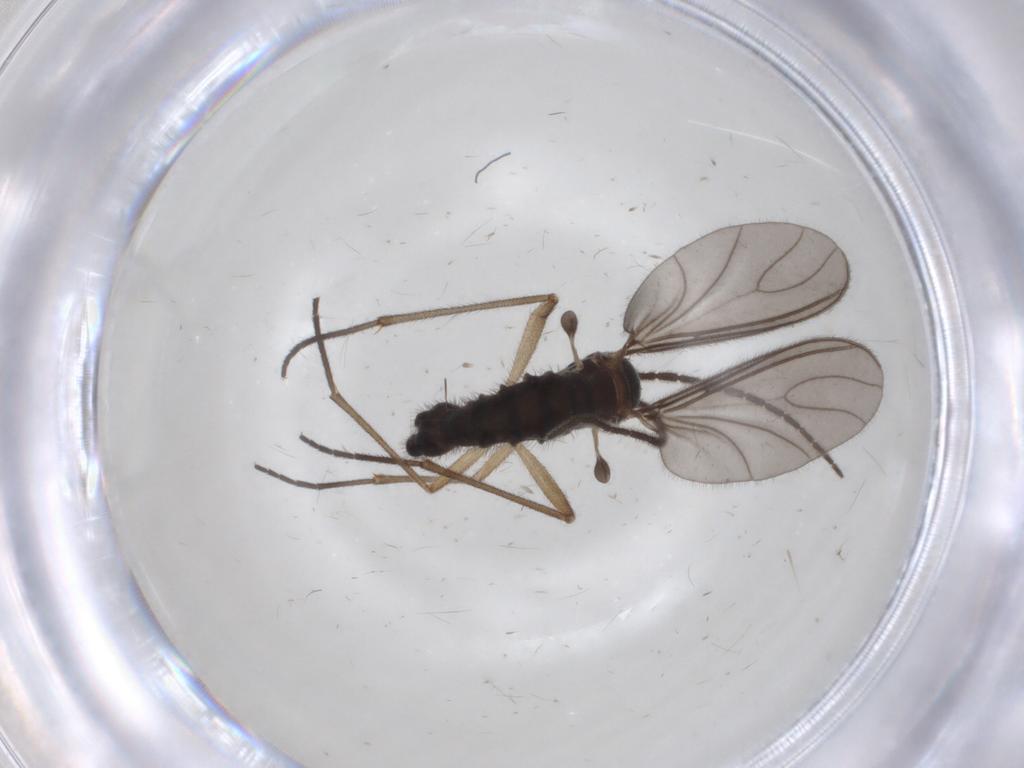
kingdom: Animalia
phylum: Arthropoda
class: Insecta
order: Diptera
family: Sciaridae
